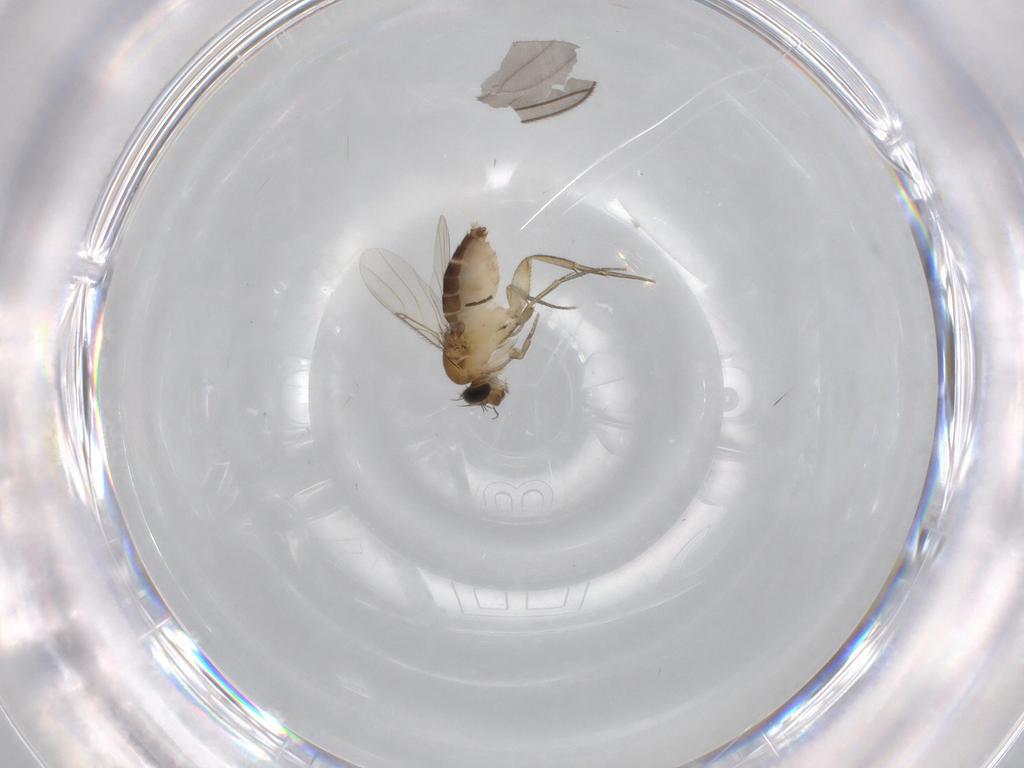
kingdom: Animalia
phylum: Arthropoda
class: Insecta
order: Diptera
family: Phoridae
